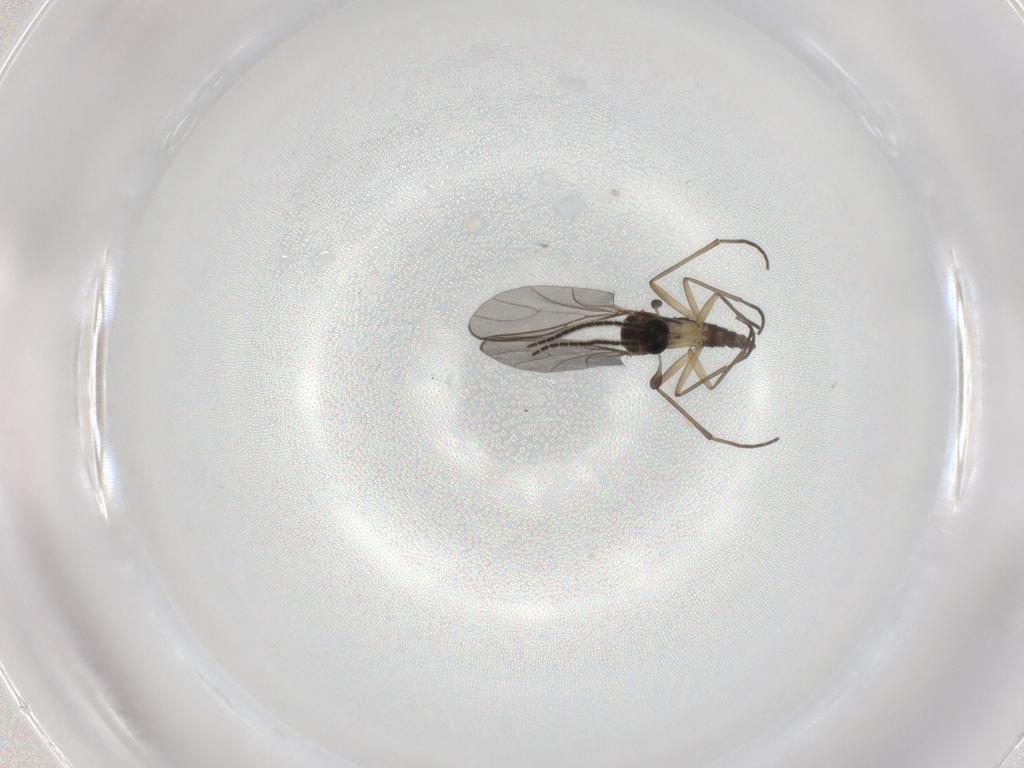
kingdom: Animalia
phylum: Arthropoda
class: Insecta
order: Diptera
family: Sciaridae
